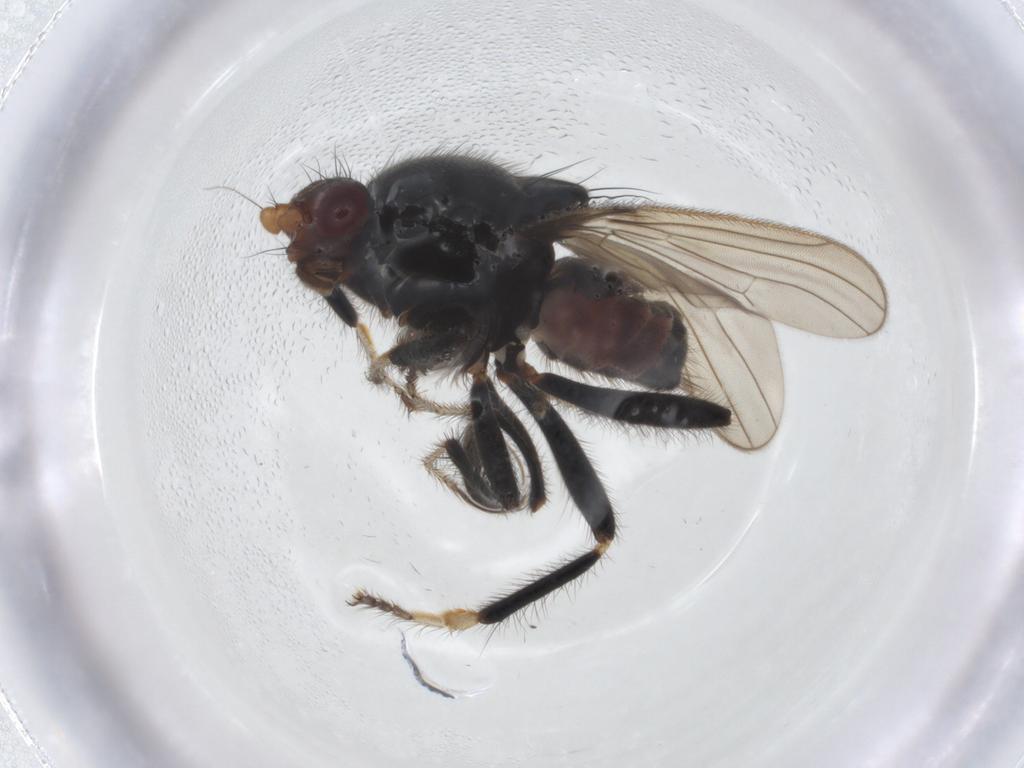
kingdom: Animalia
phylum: Arthropoda
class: Insecta
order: Diptera
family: Sphaeroceridae
